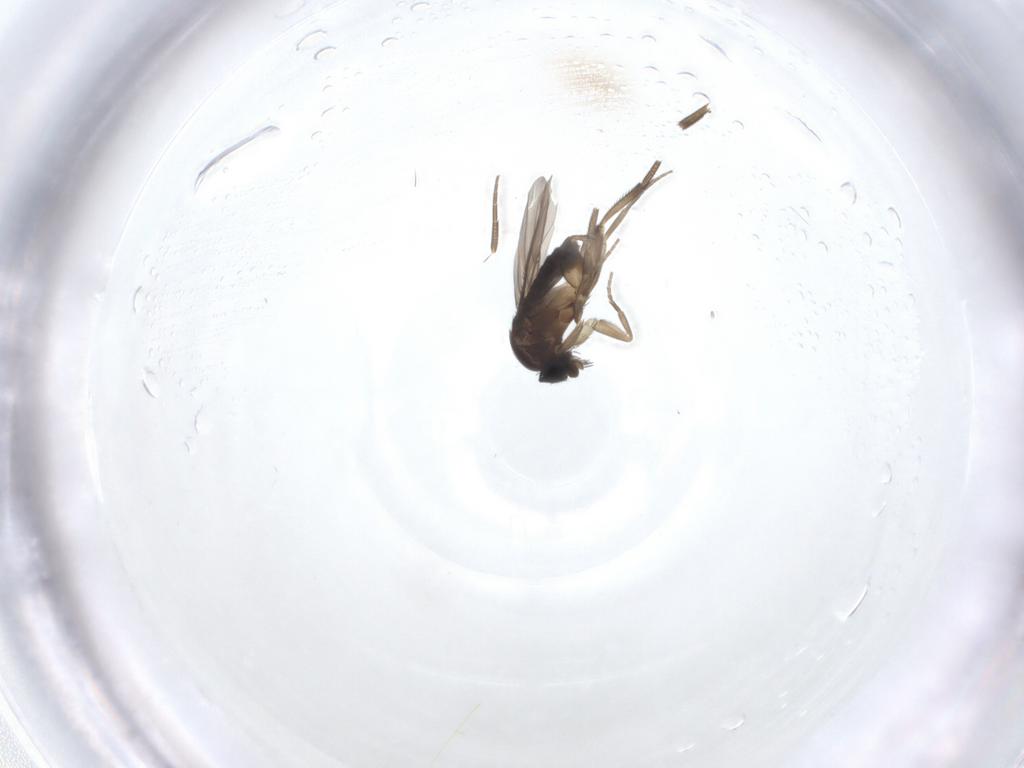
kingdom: Animalia
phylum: Arthropoda
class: Insecta
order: Diptera
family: Phoridae
